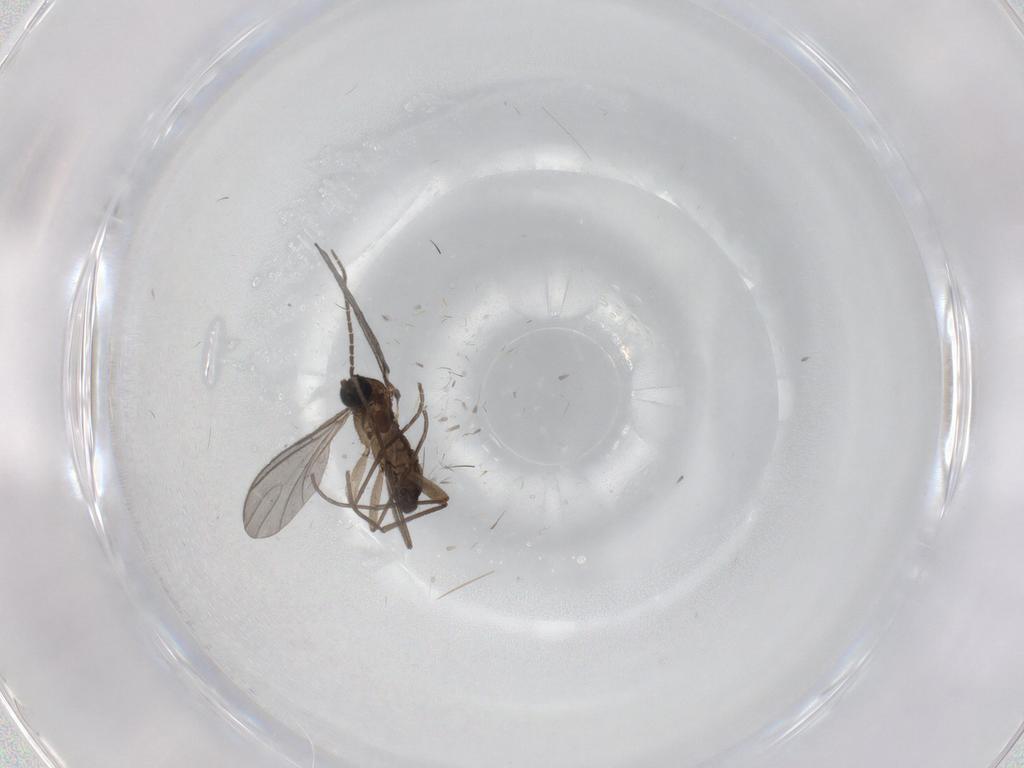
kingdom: Animalia
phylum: Arthropoda
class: Insecta
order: Diptera
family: Sciaridae
